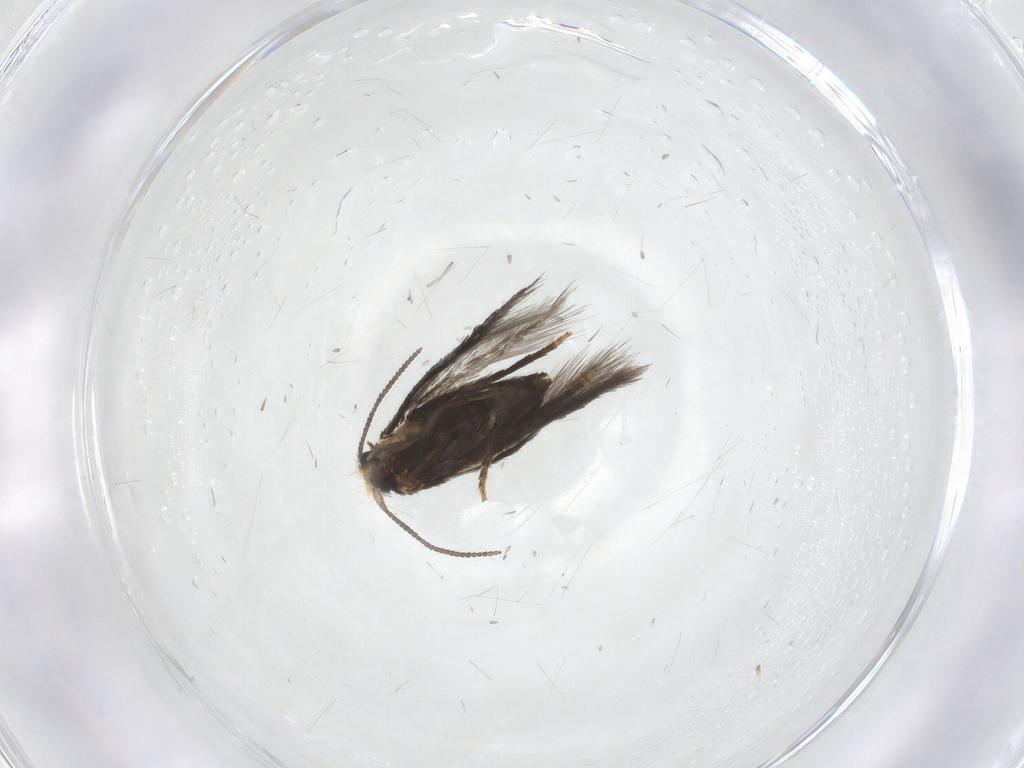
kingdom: Animalia
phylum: Arthropoda
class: Insecta
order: Lepidoptera
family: Nepticulidae
